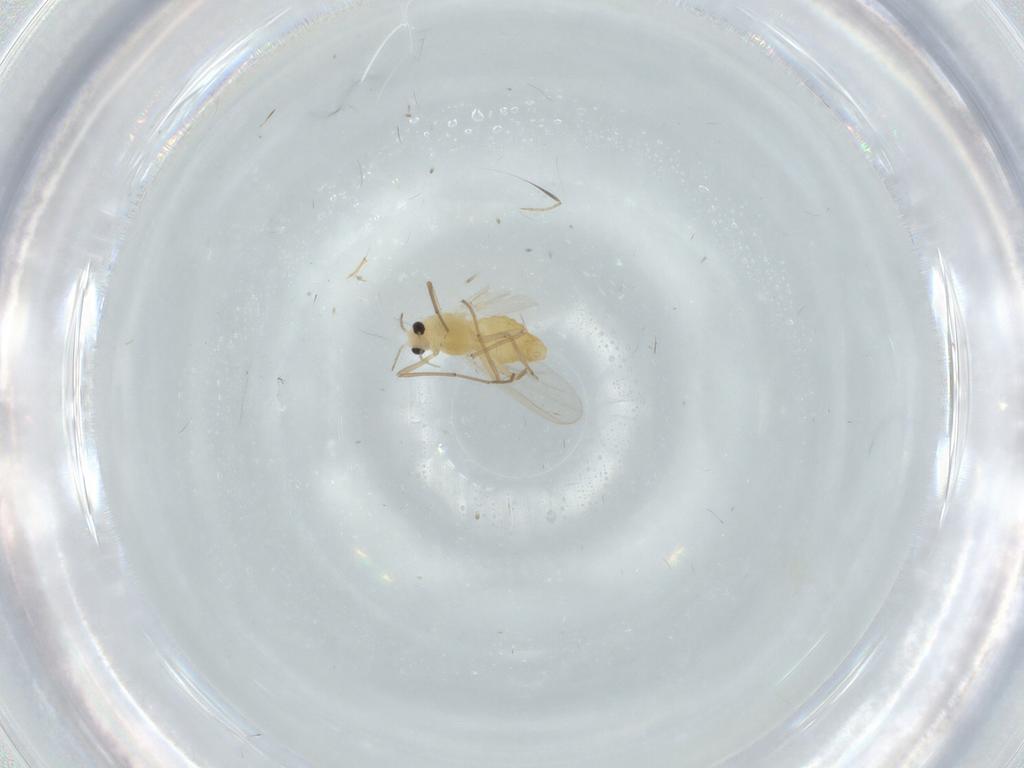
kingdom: Animalia
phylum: Arthropoda
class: Insecta
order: Diptera
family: Chironomidae
